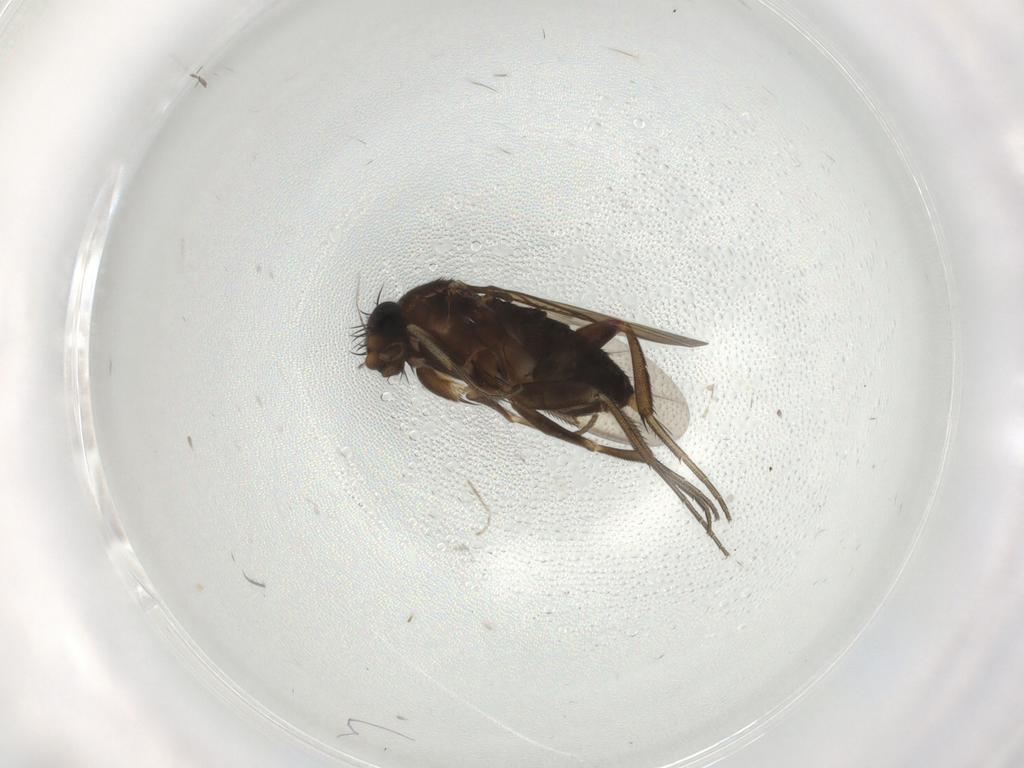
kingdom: Animalia
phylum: Arthropoda
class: Insecta
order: Diptera
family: Phoridae
